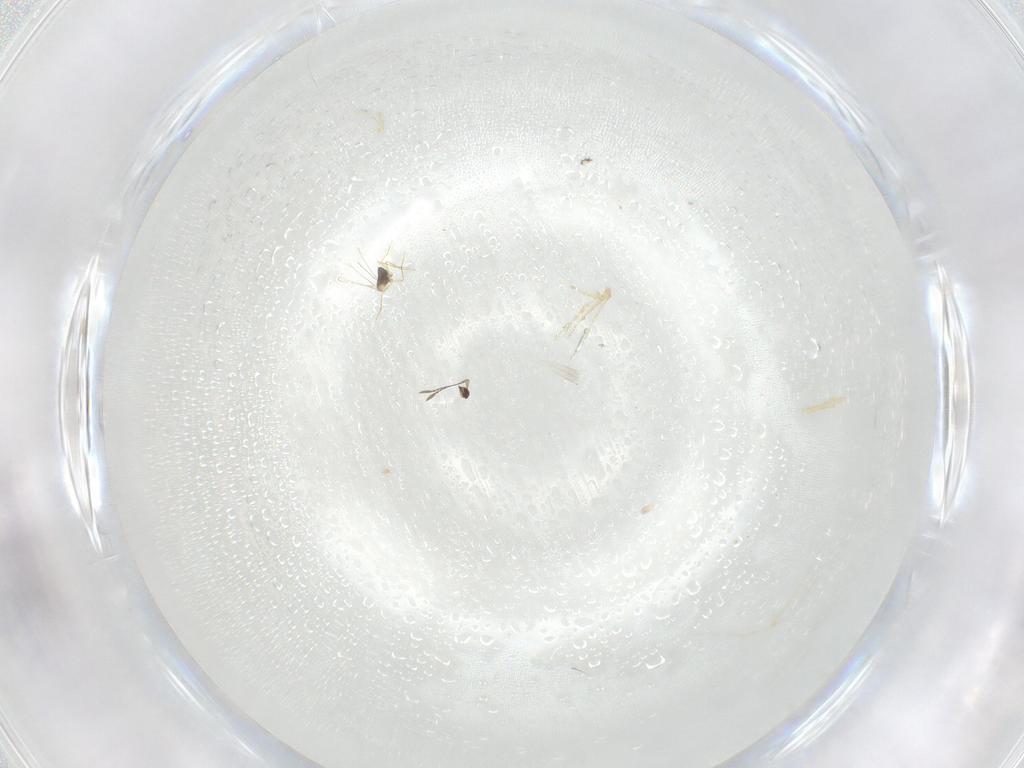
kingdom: Animalia
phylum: Arthropoda
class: Insecta
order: Hymenoptera
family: Mymaridae
